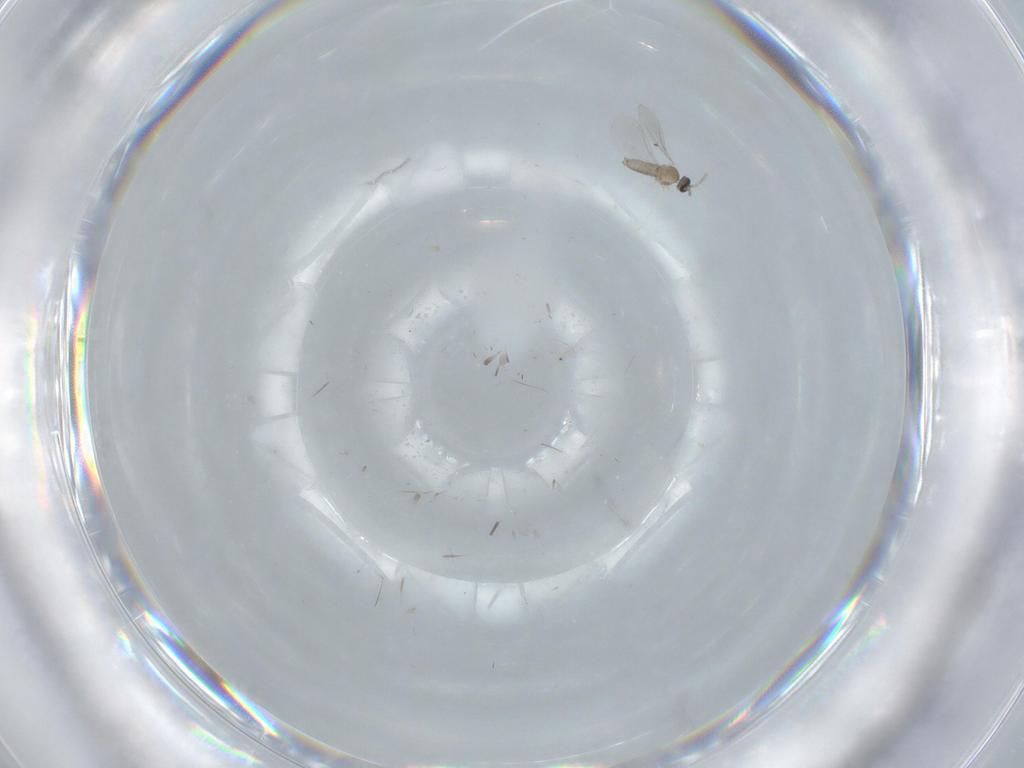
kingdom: Animalia
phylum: Arthropoda
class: Insecta
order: Diptera
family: Cecidomyiidae
